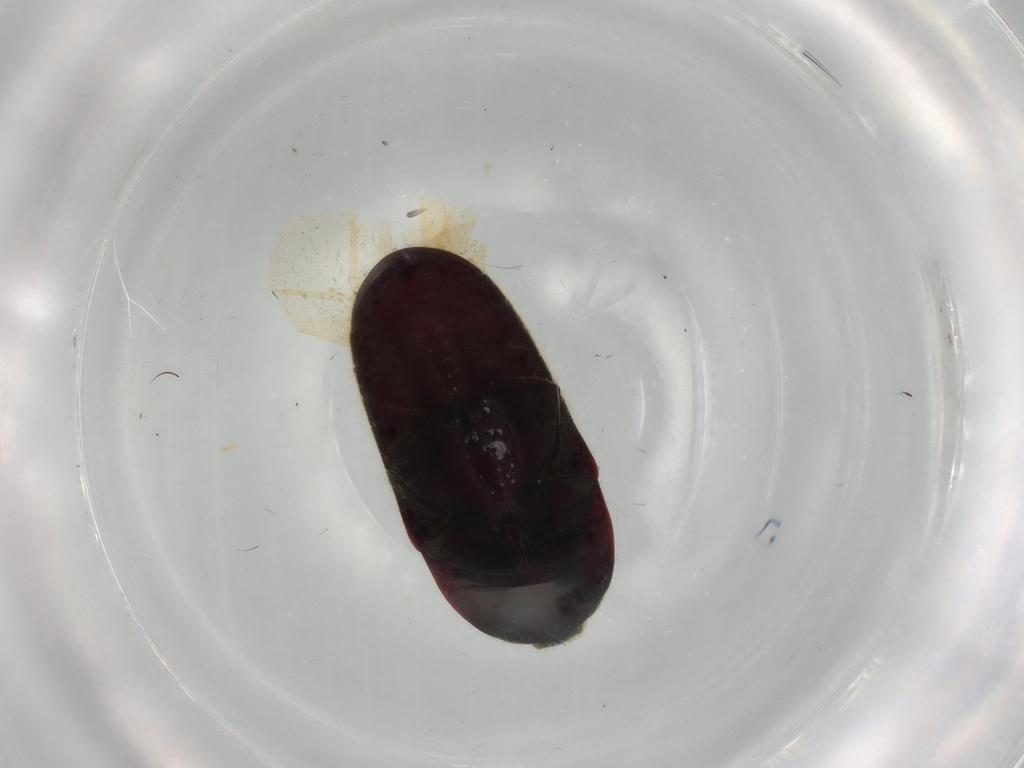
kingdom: Animalia
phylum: Arthropoda
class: Insecta
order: Coleoptera
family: Throscidae
